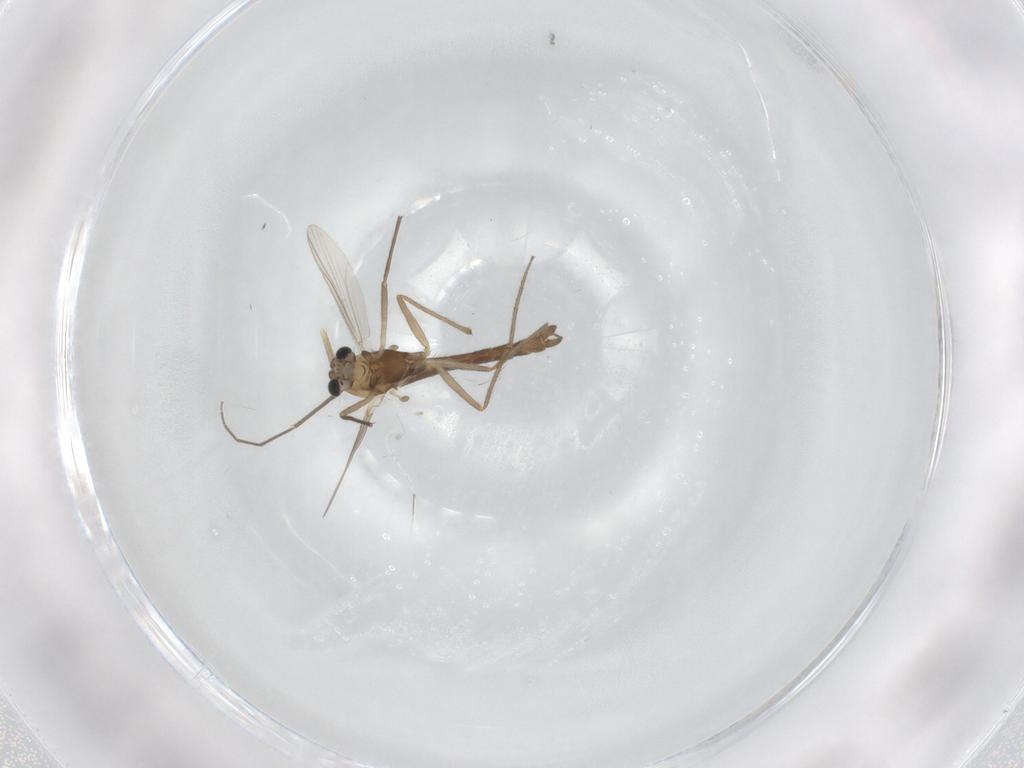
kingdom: Animalia
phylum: Arthropoda
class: Insecta
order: Diptera
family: Chironomidae
